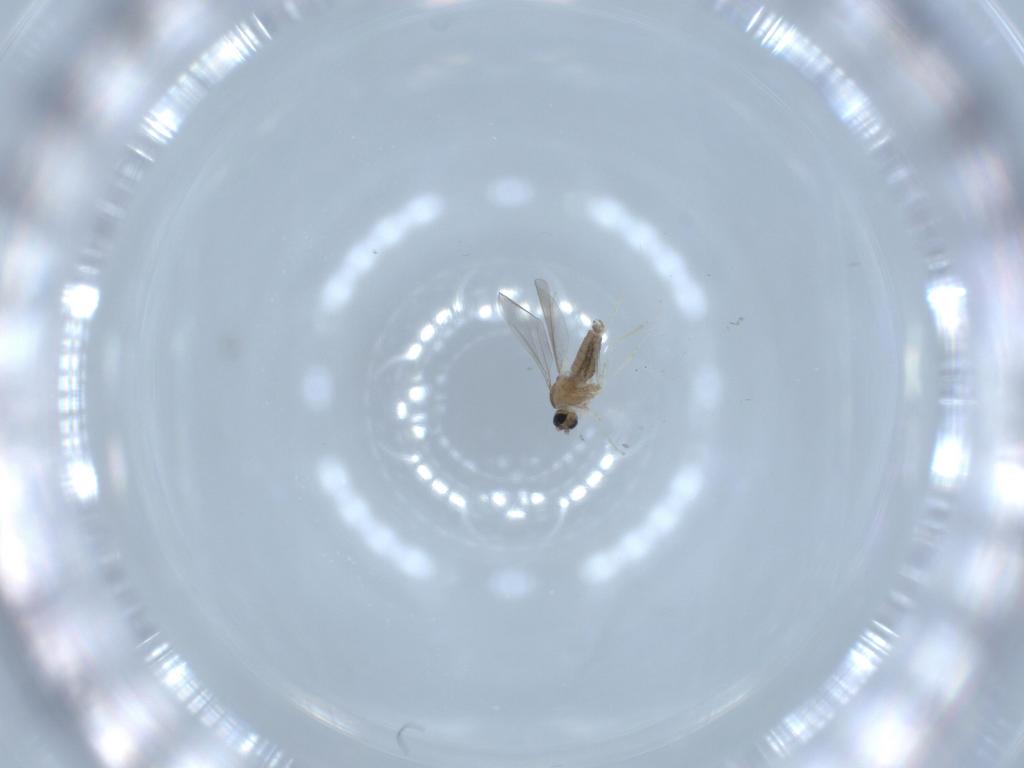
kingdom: Animalia
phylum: Arthropoda
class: Insecta
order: Diptera
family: Cecidomyiidae
